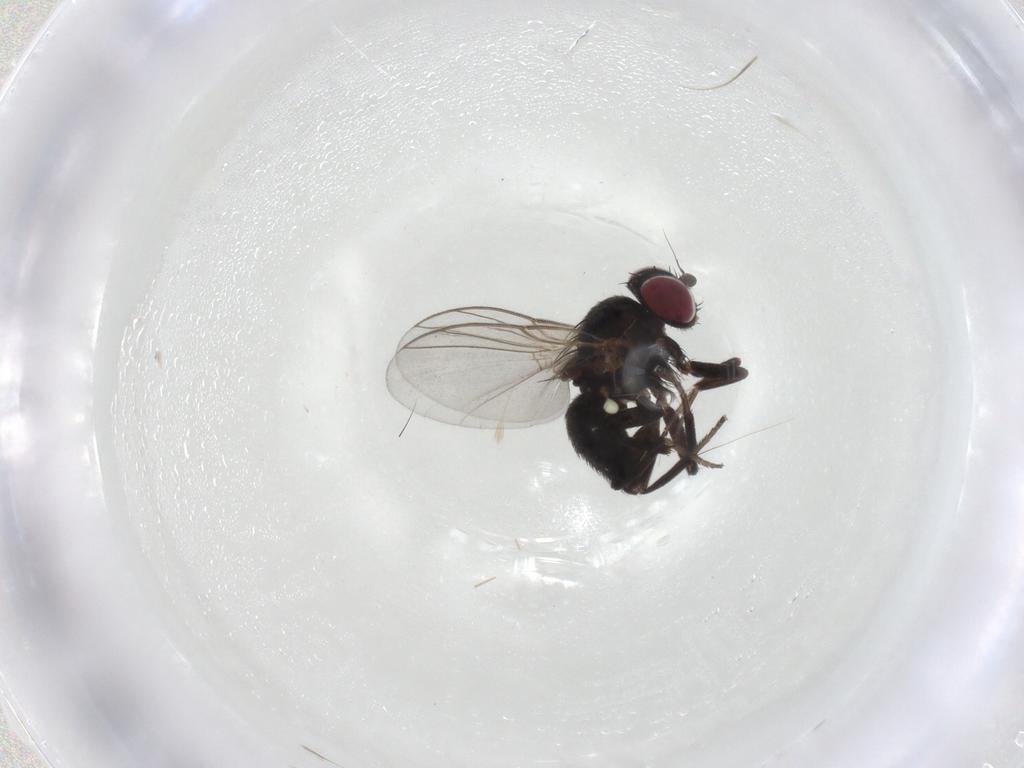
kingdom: Animalia
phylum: Arthropoda
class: Insecta
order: Diptera
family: Agromyzidae
